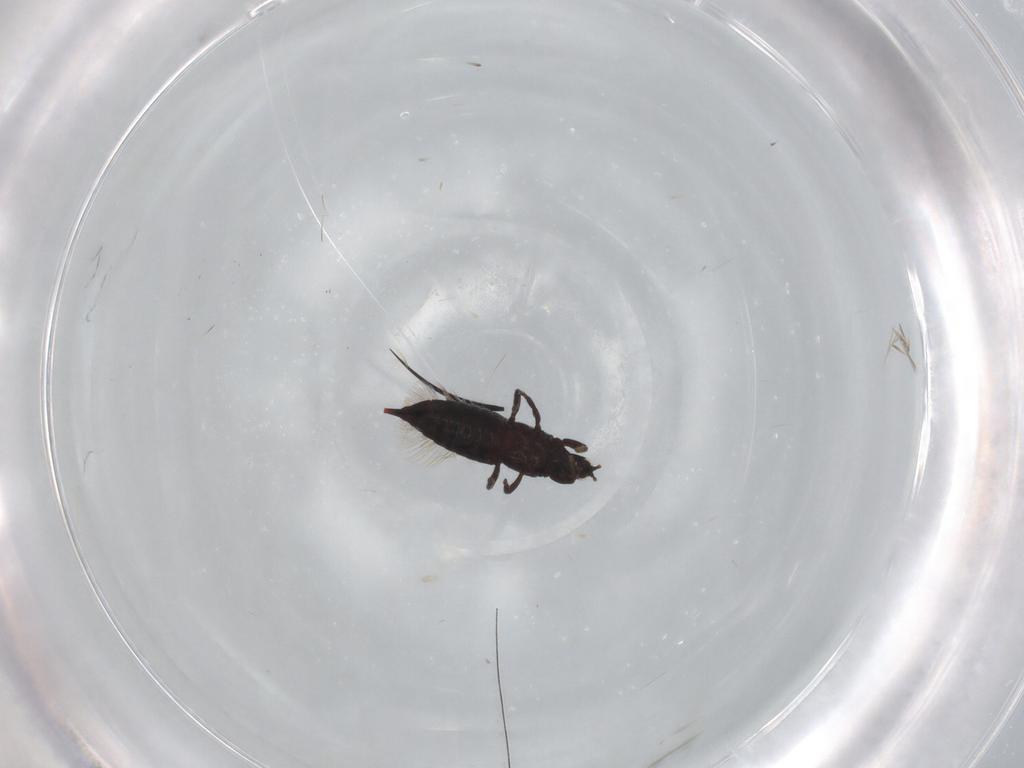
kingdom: Animalia
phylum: Arthropoda
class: Insecta
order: Thysanoptera
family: Phlaeothripidae
